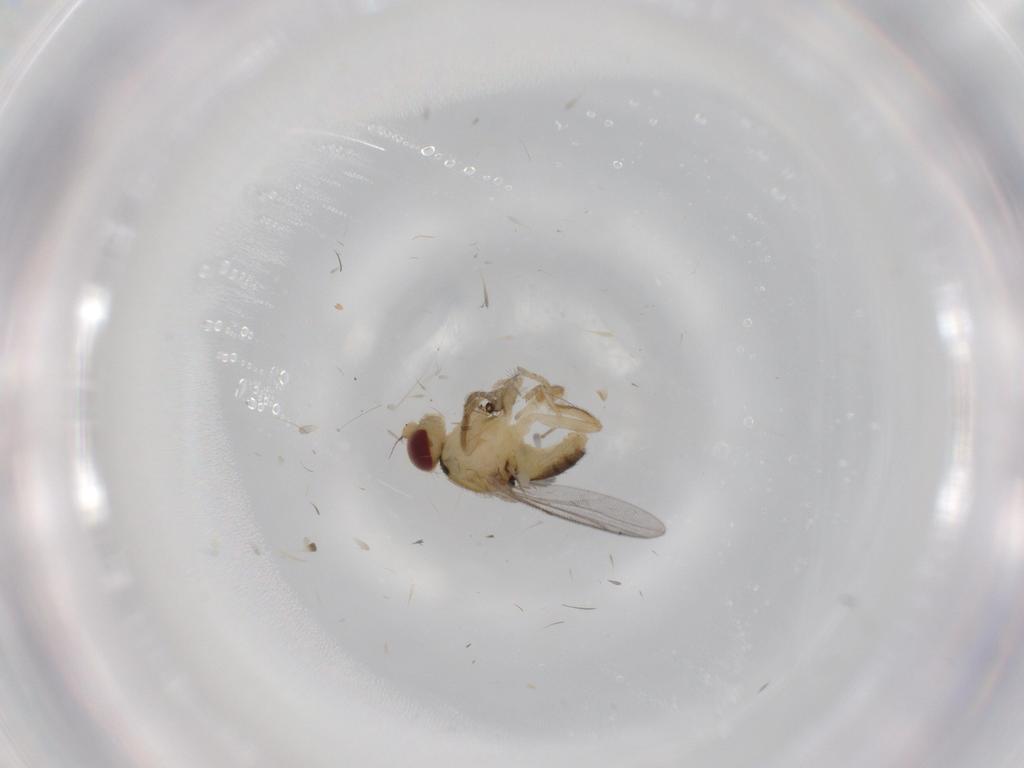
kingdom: Animalia
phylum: Arthropoda
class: Insecta
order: Diptera
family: Chloropidae
